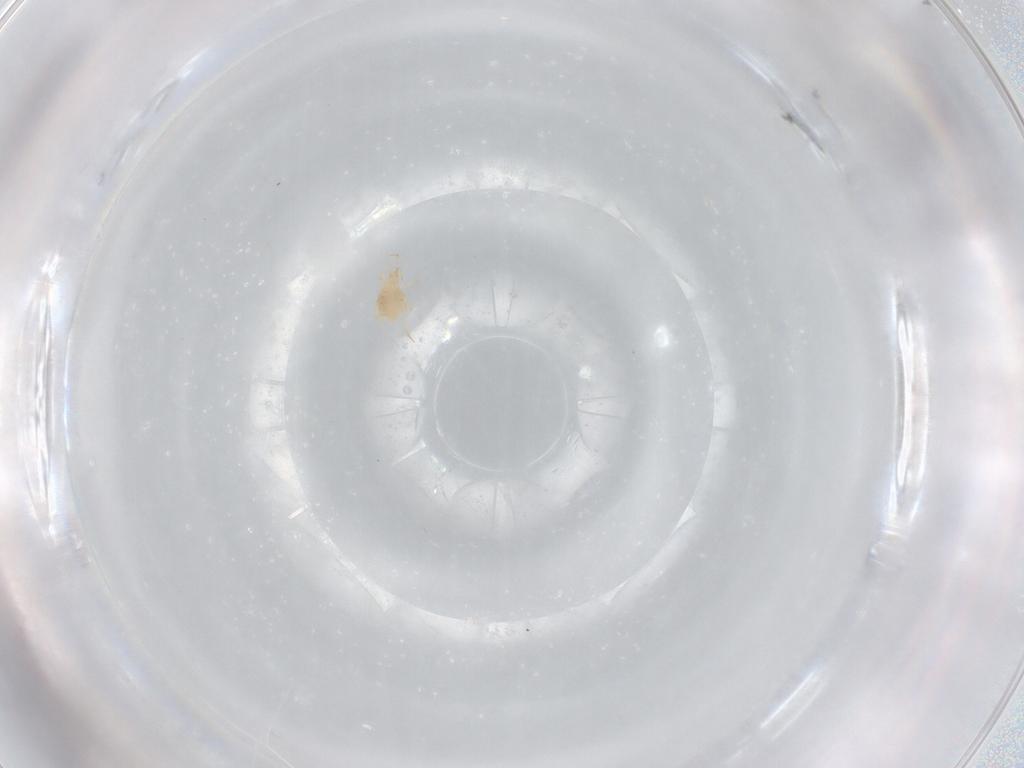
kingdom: Animalia
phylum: Arthropoda
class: Arachnida
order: Trombidiformes
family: Cunaxidae
